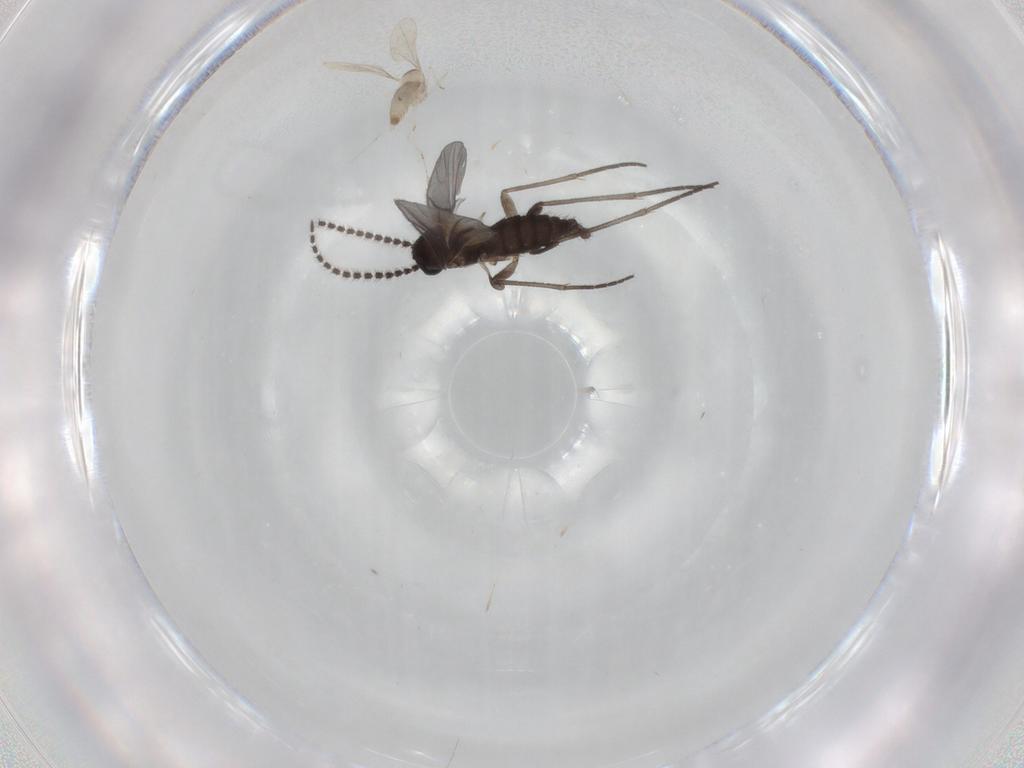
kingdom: Animalia
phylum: Arthropoda
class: Insecta
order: Diptera
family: Sciaridae
